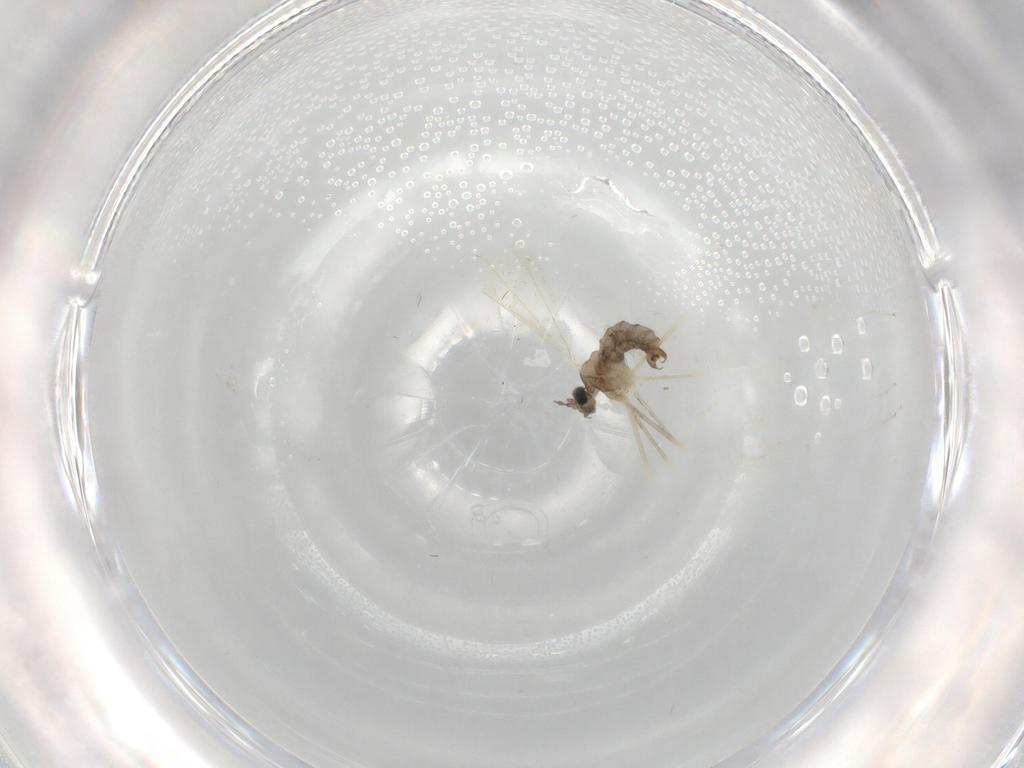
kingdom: Animalia
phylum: Arthropoda
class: Insecta
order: Diptera
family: Cecidomyiidae
